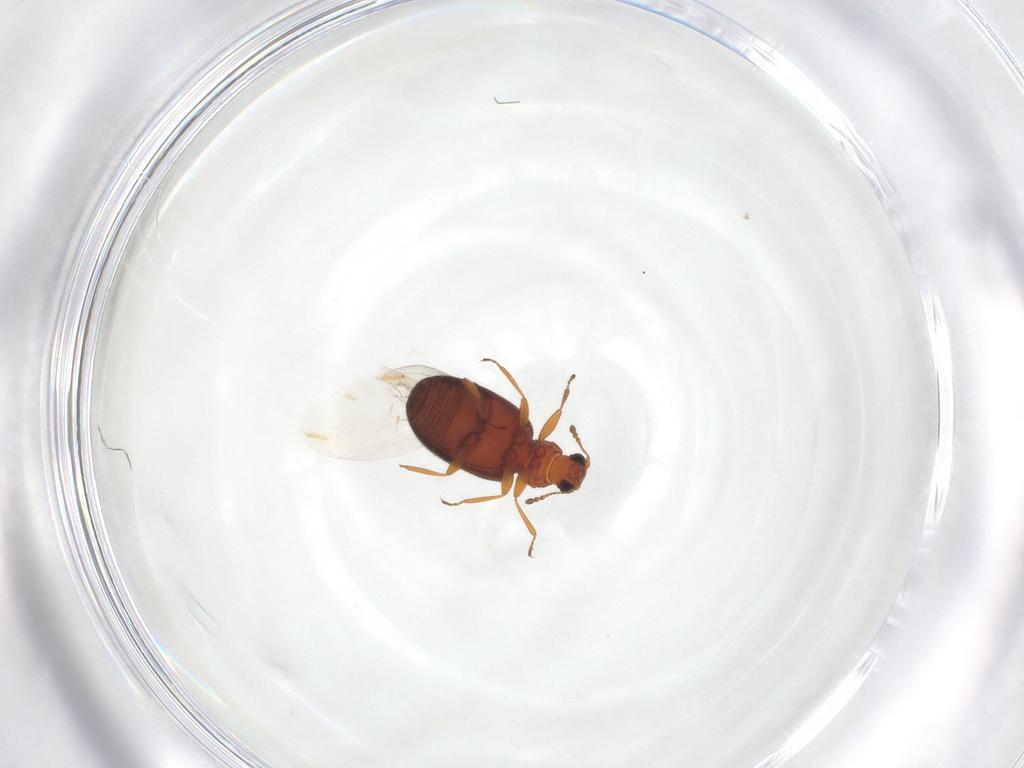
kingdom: Animalia
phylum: Arthropoda
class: Insecta
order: Coleoptera
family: Latridiidae
